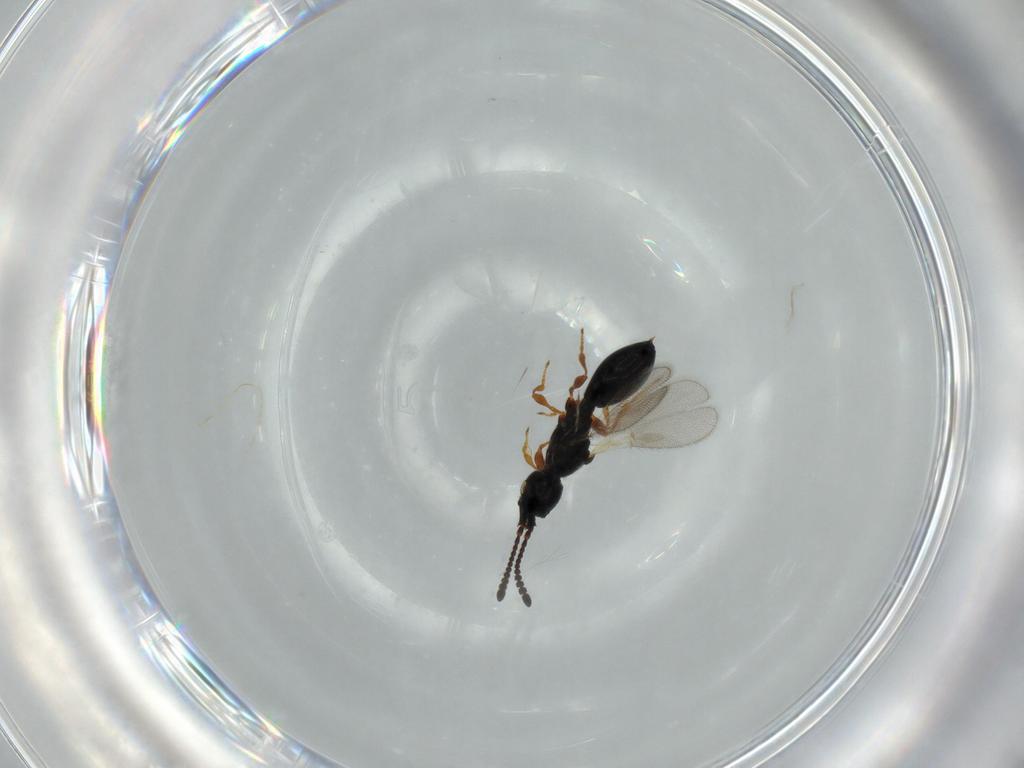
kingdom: Animalia
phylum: Arthropoda
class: Insecta
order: Hymenoptera
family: Diapriidae
